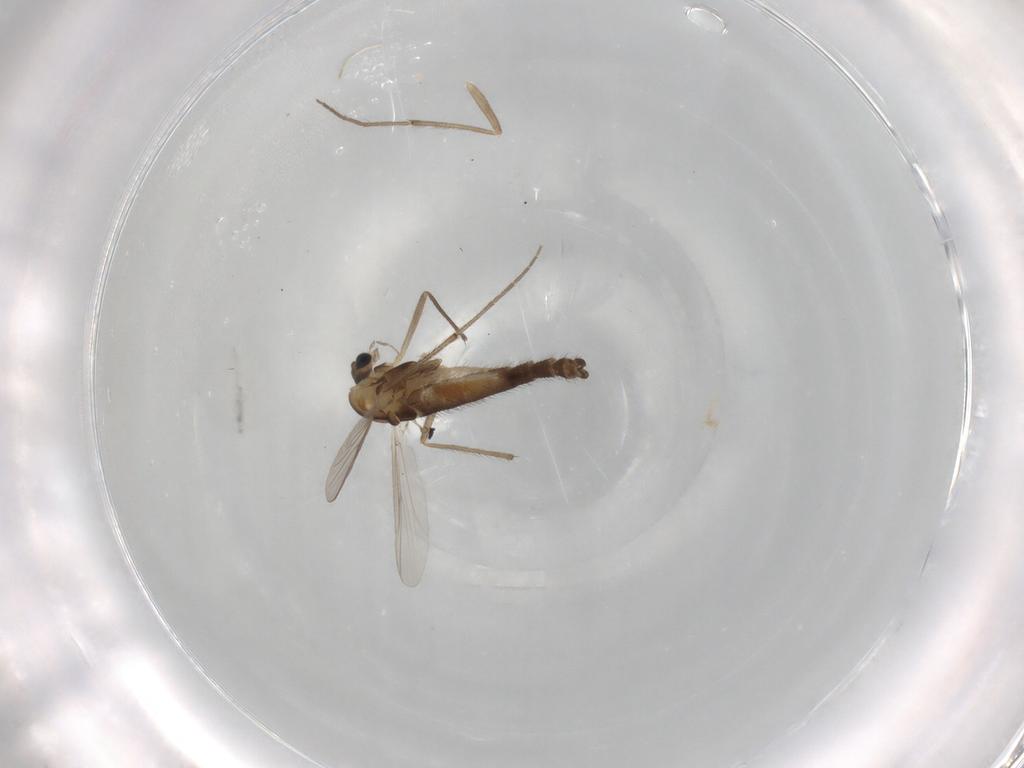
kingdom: Animalia
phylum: Arthropoda
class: Insecta
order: Diptera
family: Chironomidae
